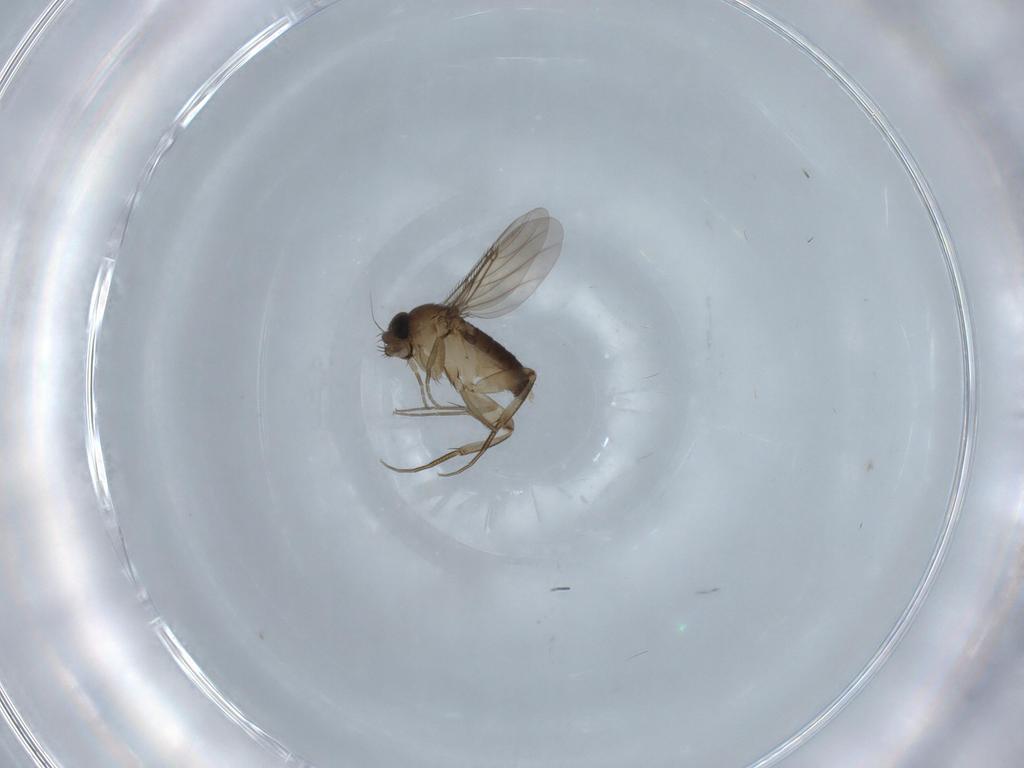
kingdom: Animalia
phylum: Arthropoda
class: Insecta
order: Diptera
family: Phoridae
